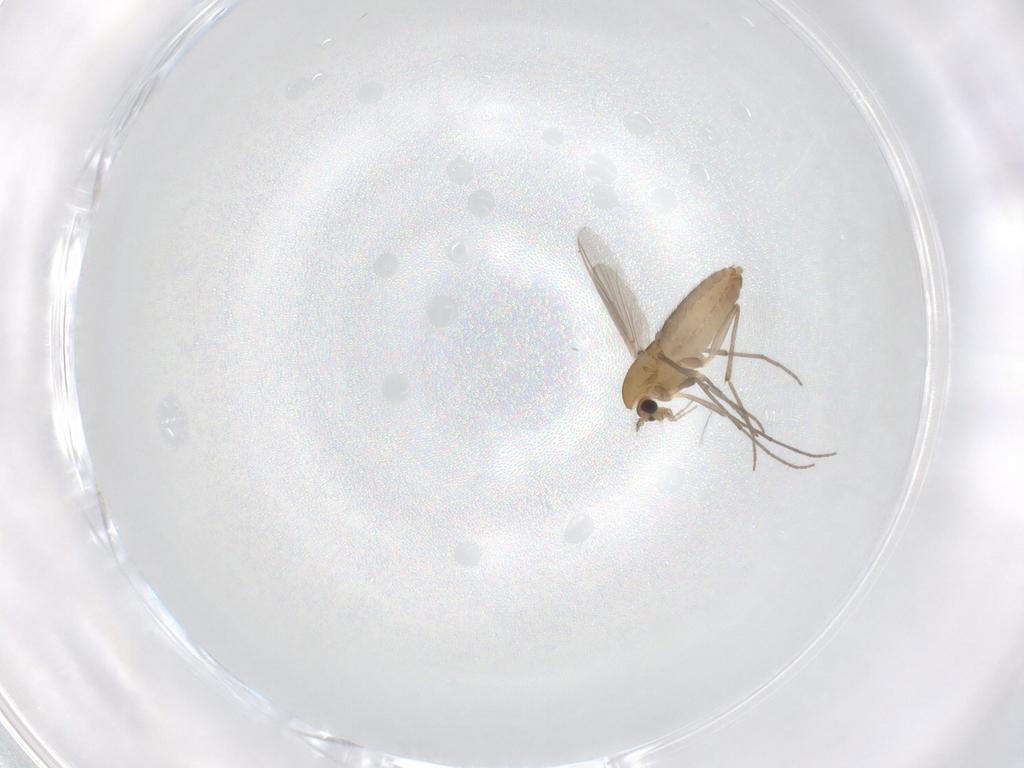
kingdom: Animalia
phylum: Arthropoda
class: Insecta
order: Diptera
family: Chironomidae
